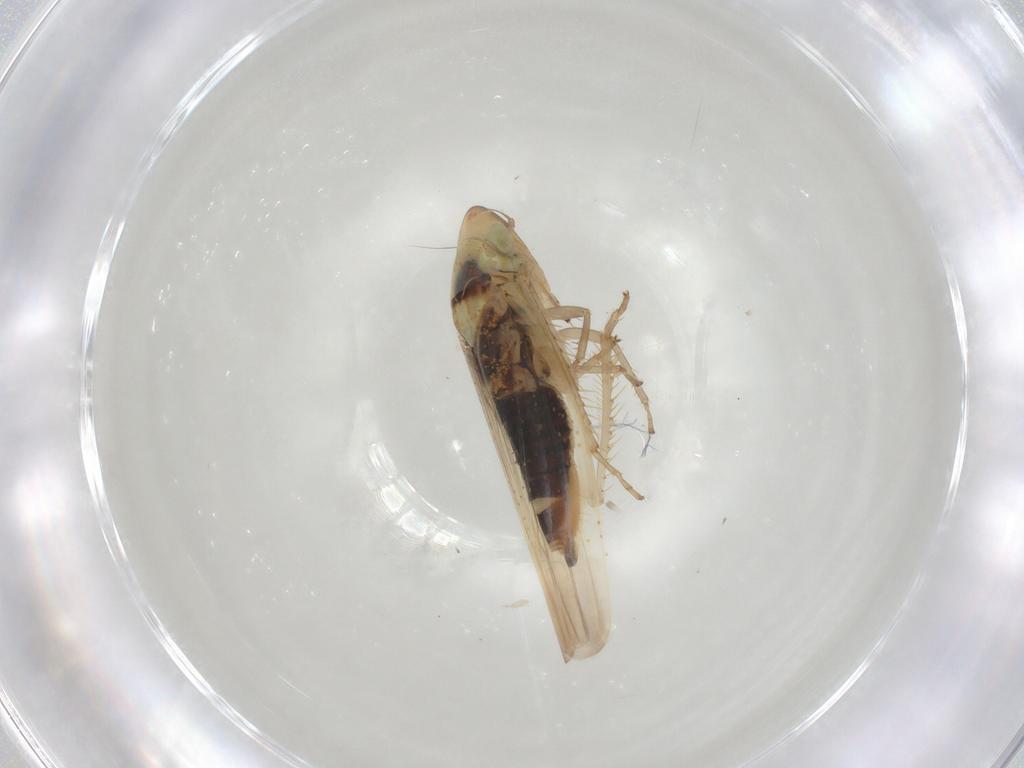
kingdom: Animalia
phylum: Arthropoda
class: Insecta
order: Hemiptera
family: Cicadellidae
